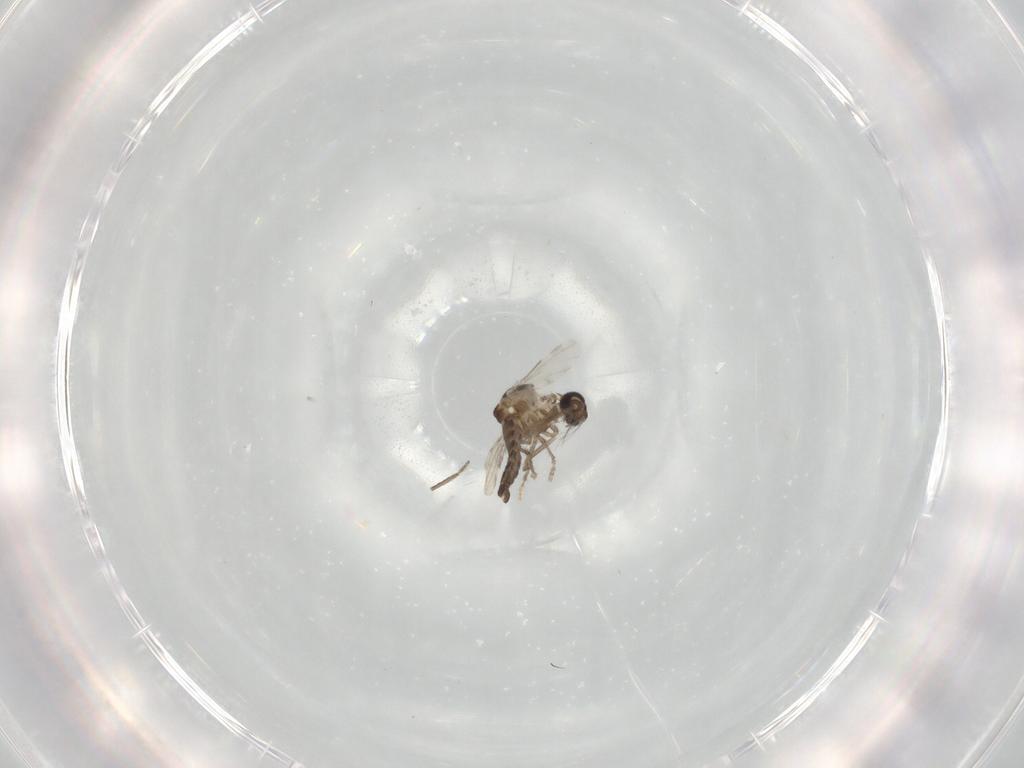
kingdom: Animalia
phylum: Arthropoda
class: Insecta
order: Diptera
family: Ceratopogonidae
